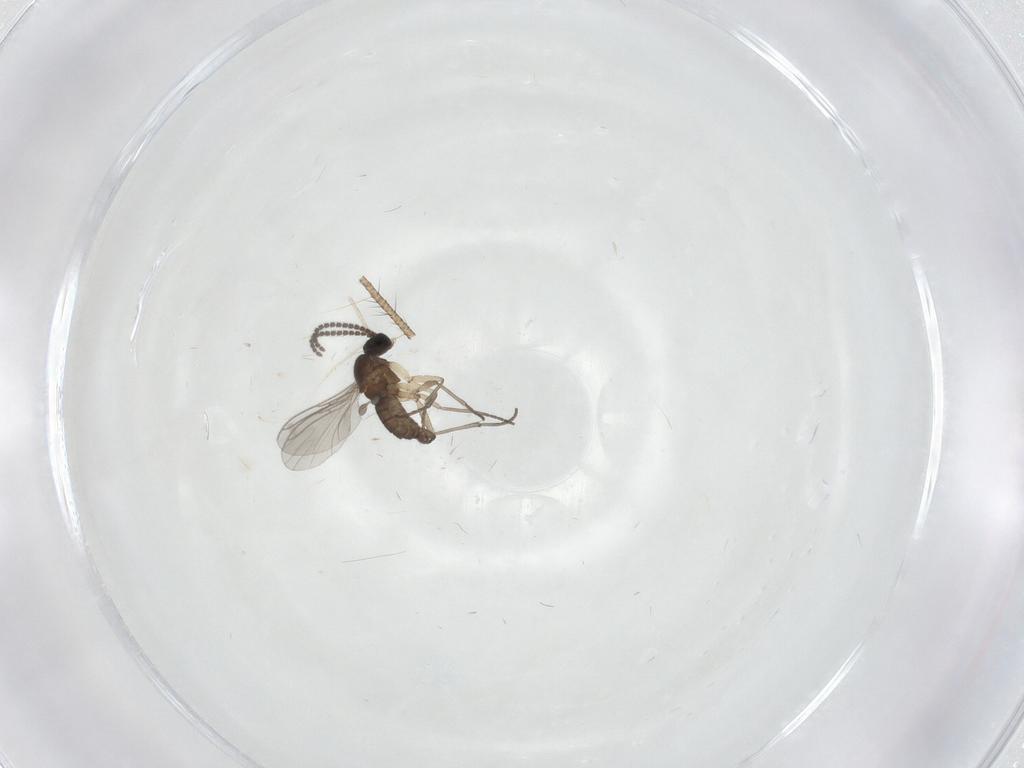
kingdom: Animalia
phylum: Arthropoda
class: Insecta
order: Diptera
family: Sciaridae
